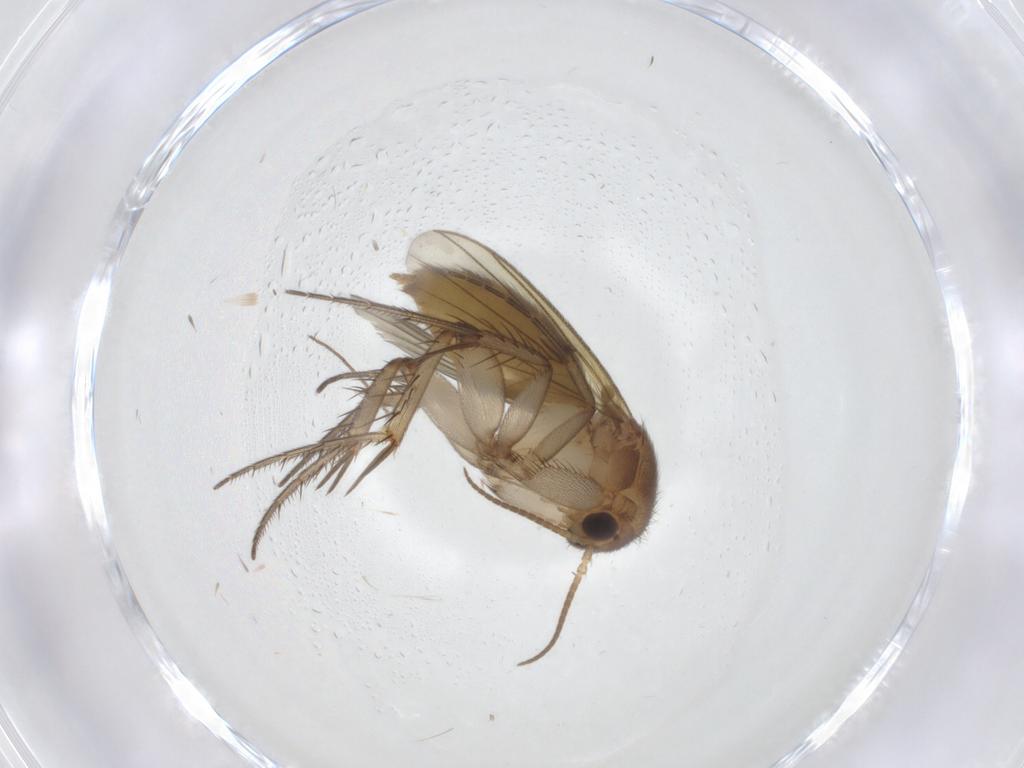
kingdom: Animalia
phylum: Arthropoda
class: Insecta
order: Diptera
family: Mycetophilidae
